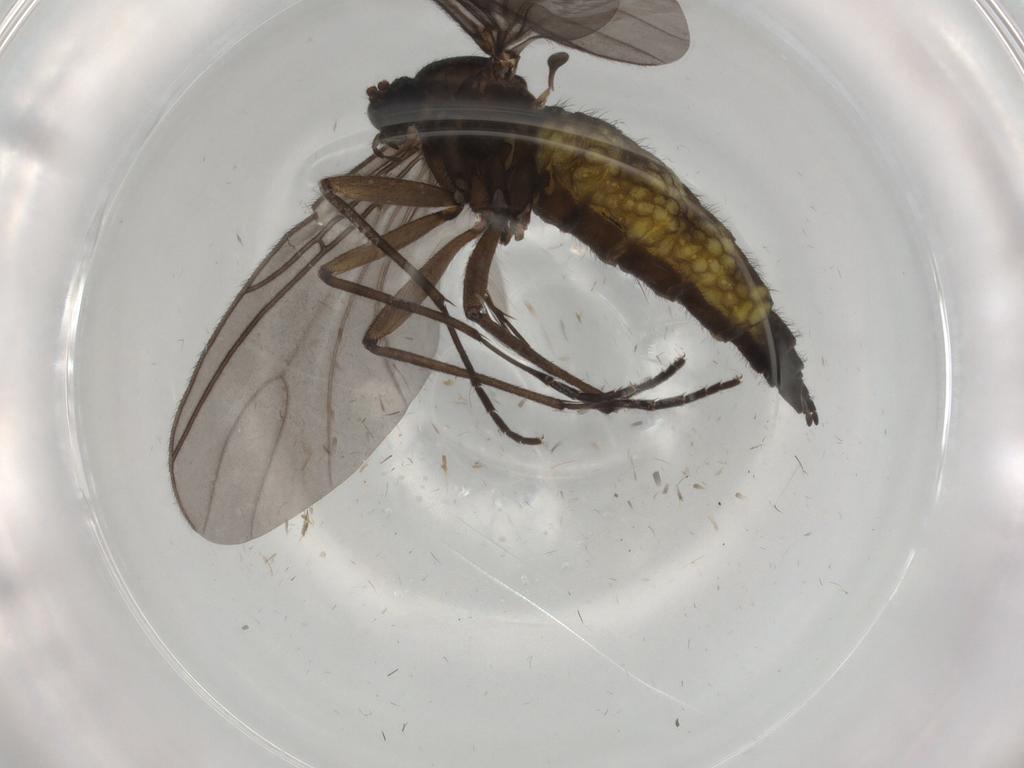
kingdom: Animalia
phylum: Arthropoda
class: Insecta
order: Diptera
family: Sciaridae
